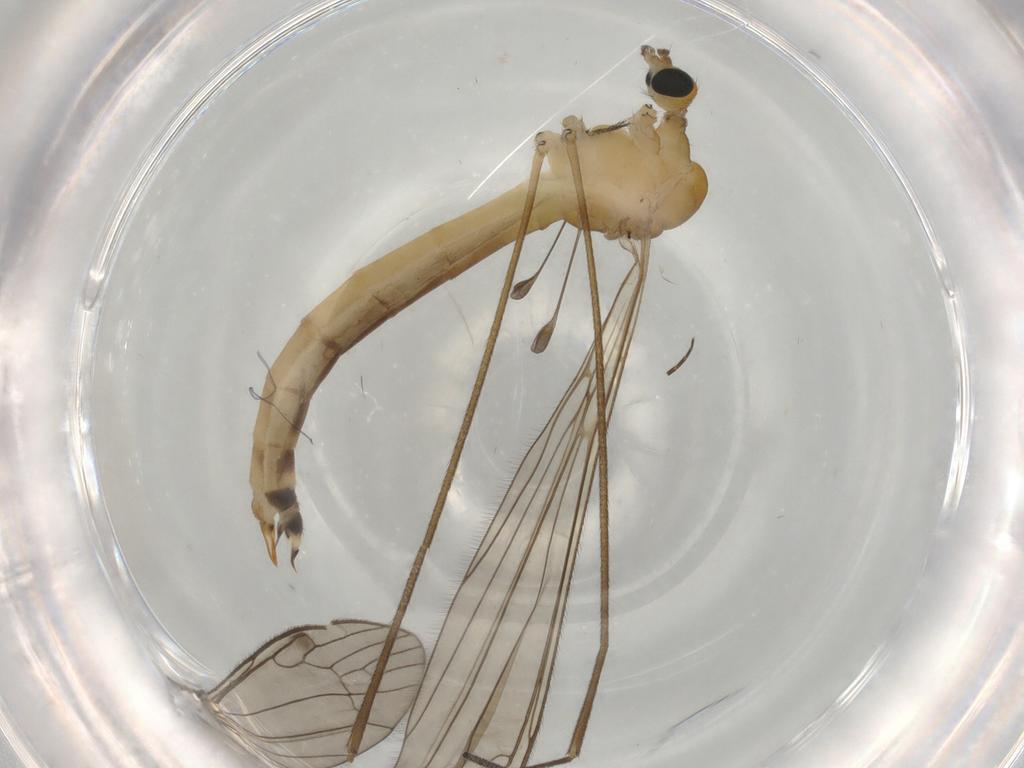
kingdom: Animalia
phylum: Arthropoda
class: Insecta
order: Diptera
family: Limoniidae
